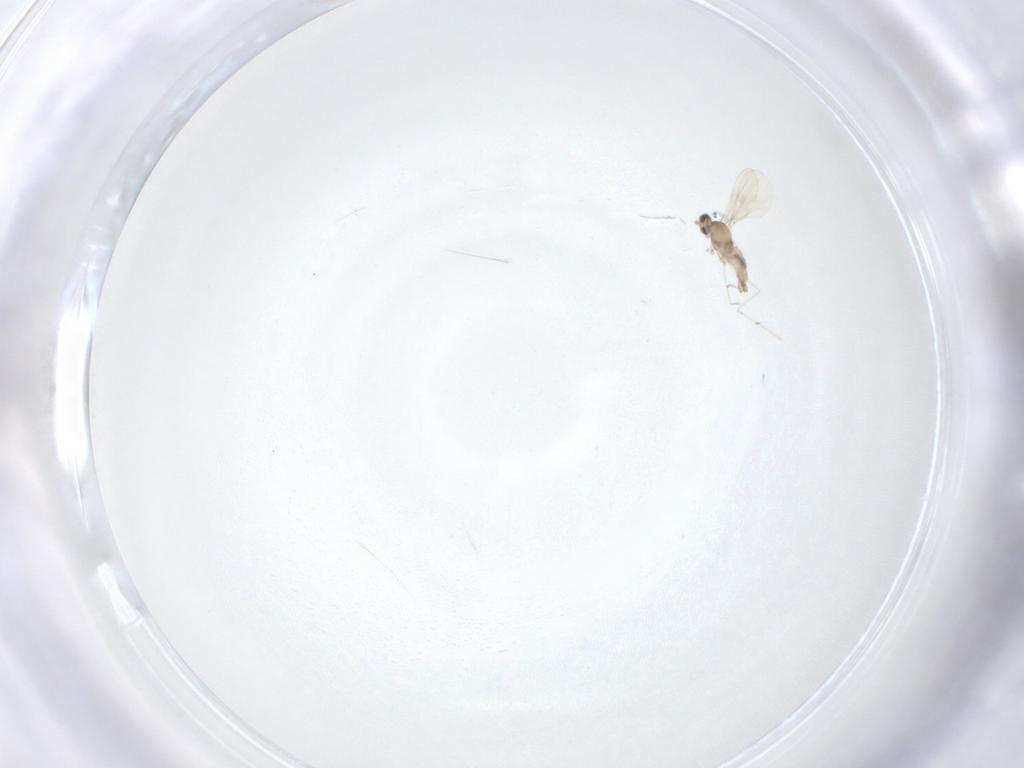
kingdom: Animalia
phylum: Arthropoda
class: Insecta
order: Diptera
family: Cecidomyiidae
